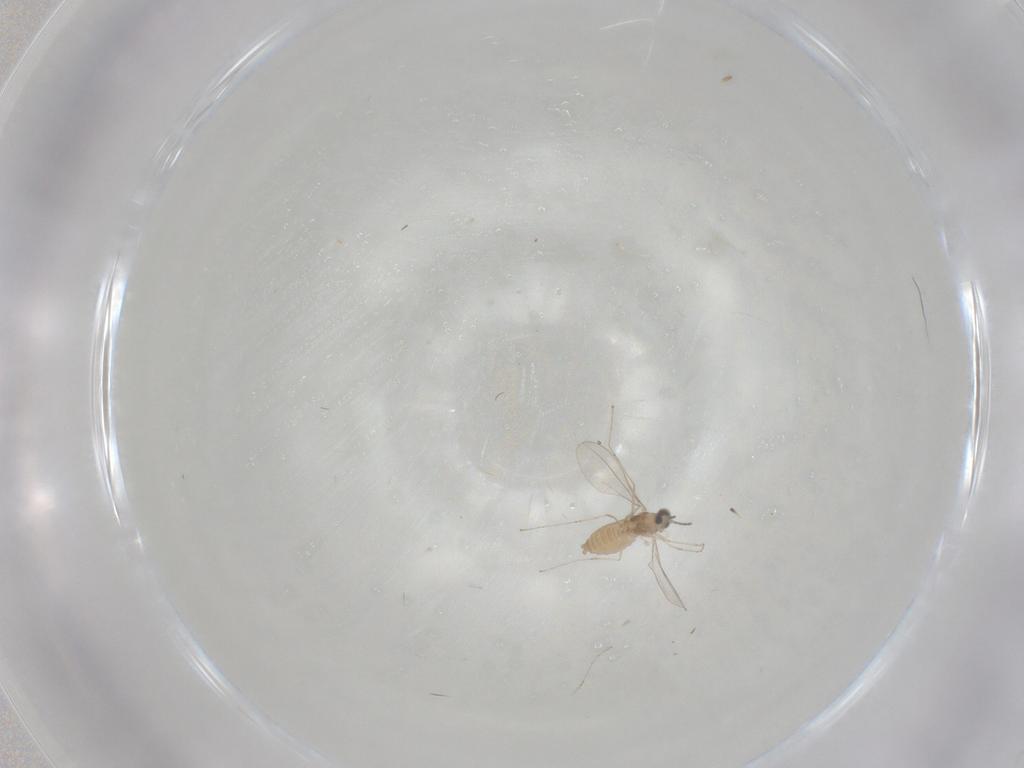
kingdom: Animalia
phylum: Arthropoda
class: Insecta
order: Diptera
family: Cecidomyiidae
